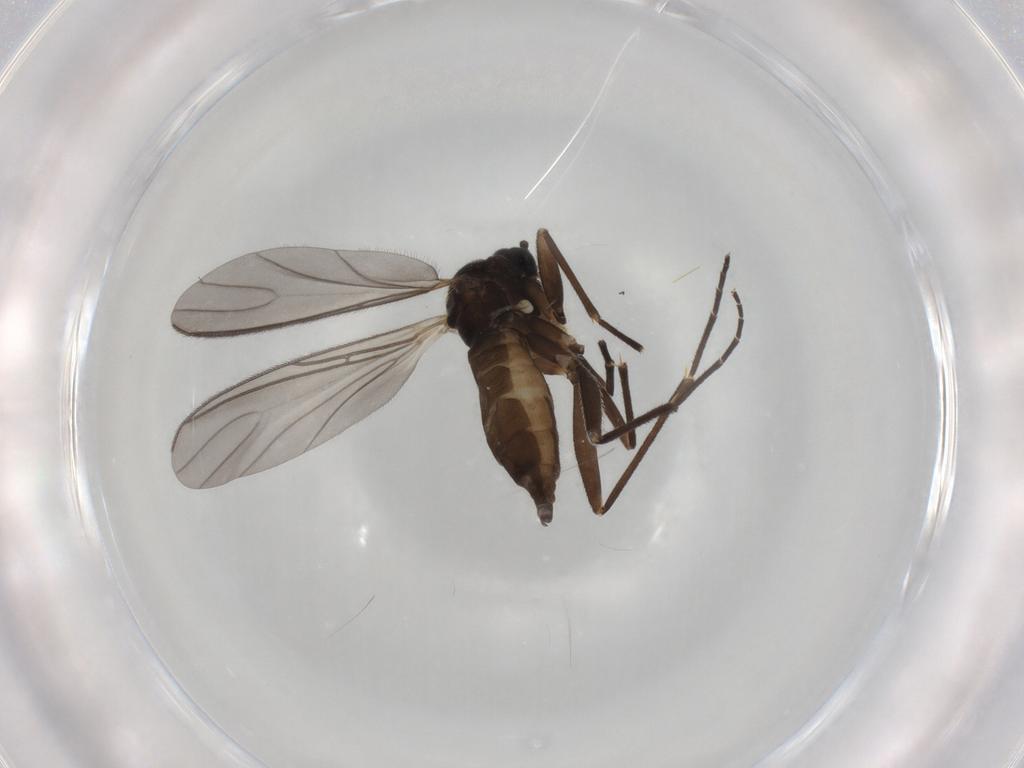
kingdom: Animalia
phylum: Arthropoda
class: Insecta
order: Diptera
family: Sciaridae
